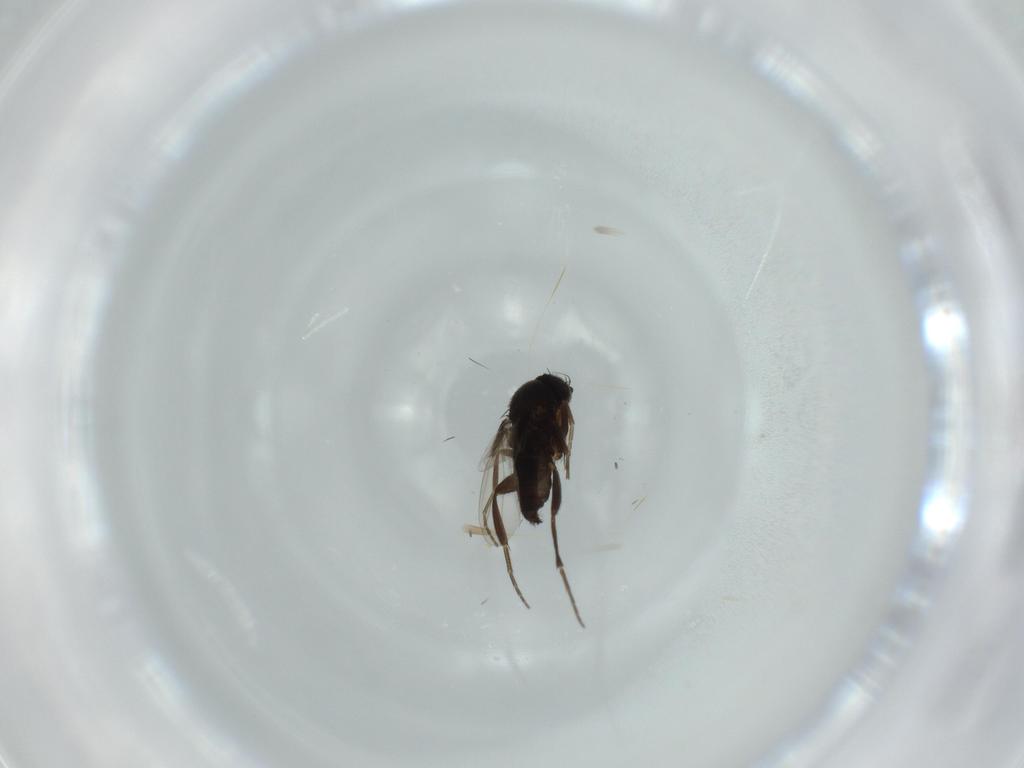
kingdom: Animalia
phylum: Arthropoda
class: Insecta
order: Diptera
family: Phoridae
